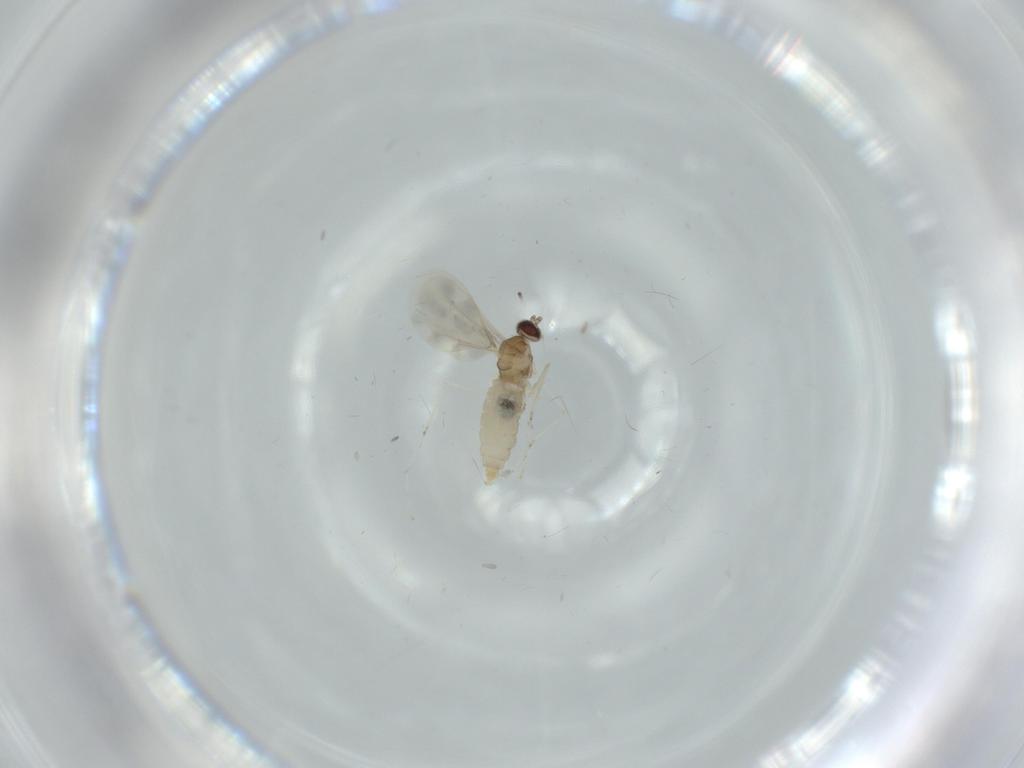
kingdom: Animalia
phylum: Arthropoda
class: Insecta
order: Diptera
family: Cecidomyiidae
